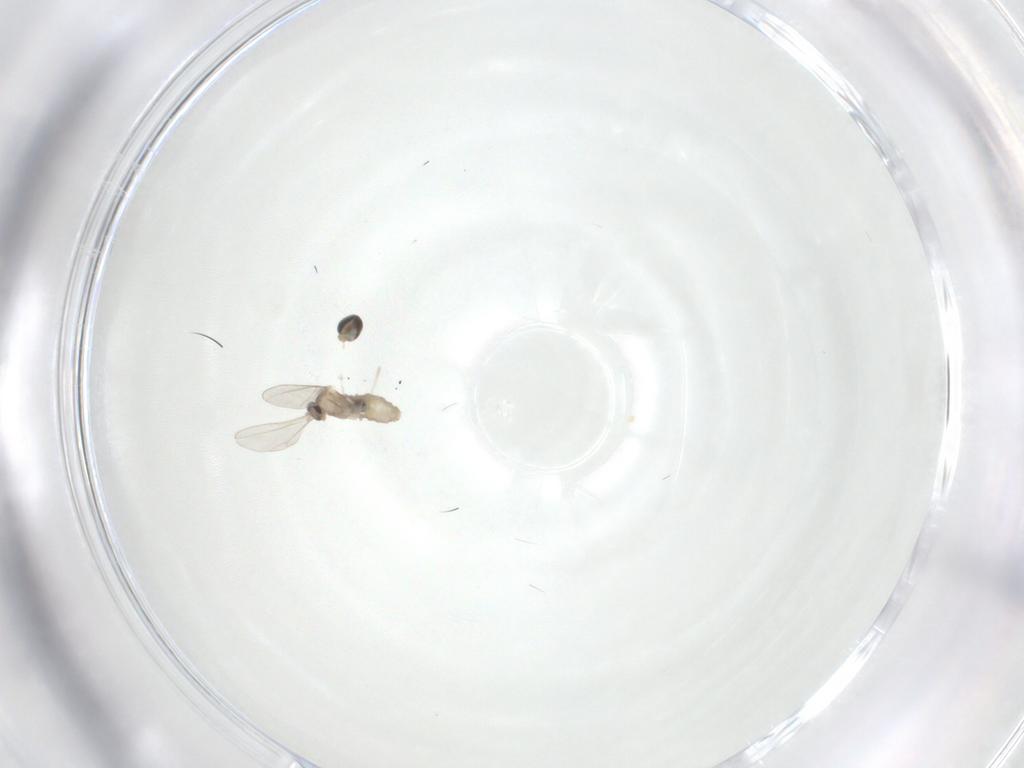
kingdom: Animalia
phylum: Arthropoda
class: Insecta
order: Diptera
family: Cecidomyiidae
